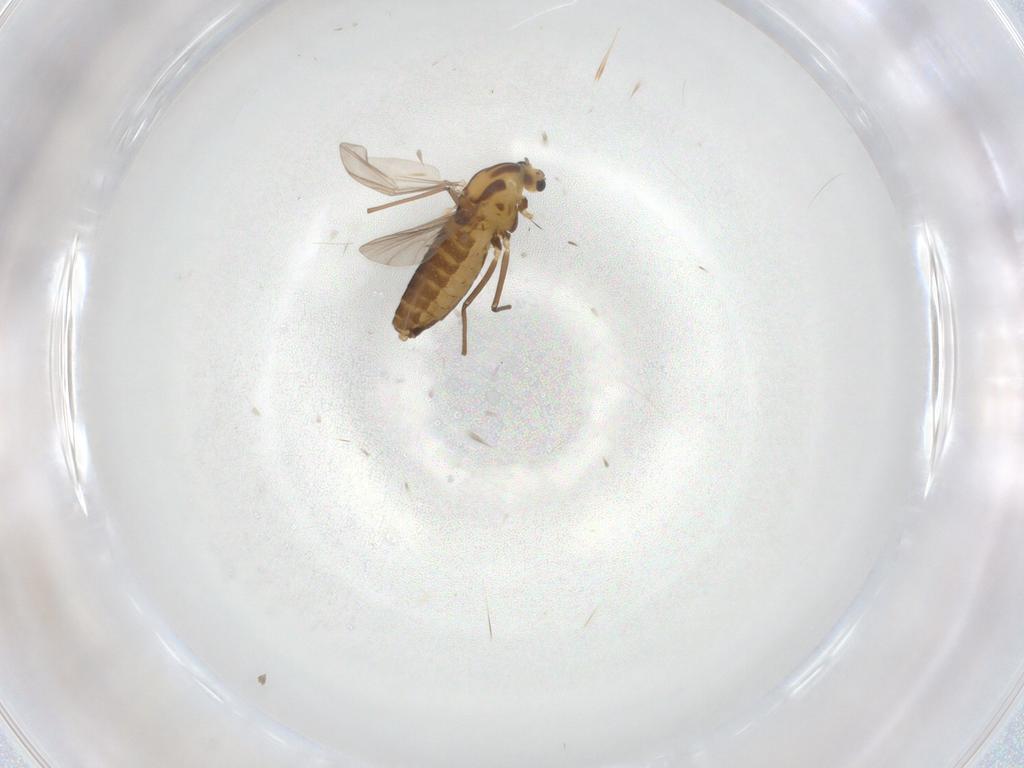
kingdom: Animalia
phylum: Arthropoda
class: Insecta
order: Diptera
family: Chironomidae
